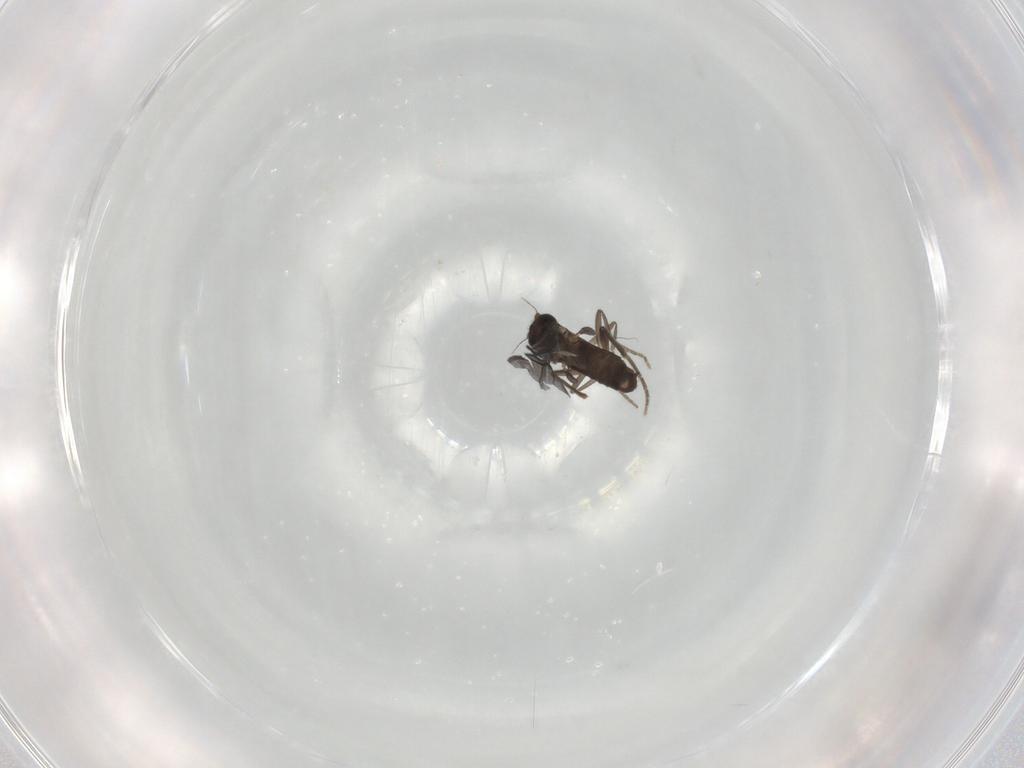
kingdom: Animalia
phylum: Arthropoda
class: Insecta
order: Diptera
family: Phoridae
